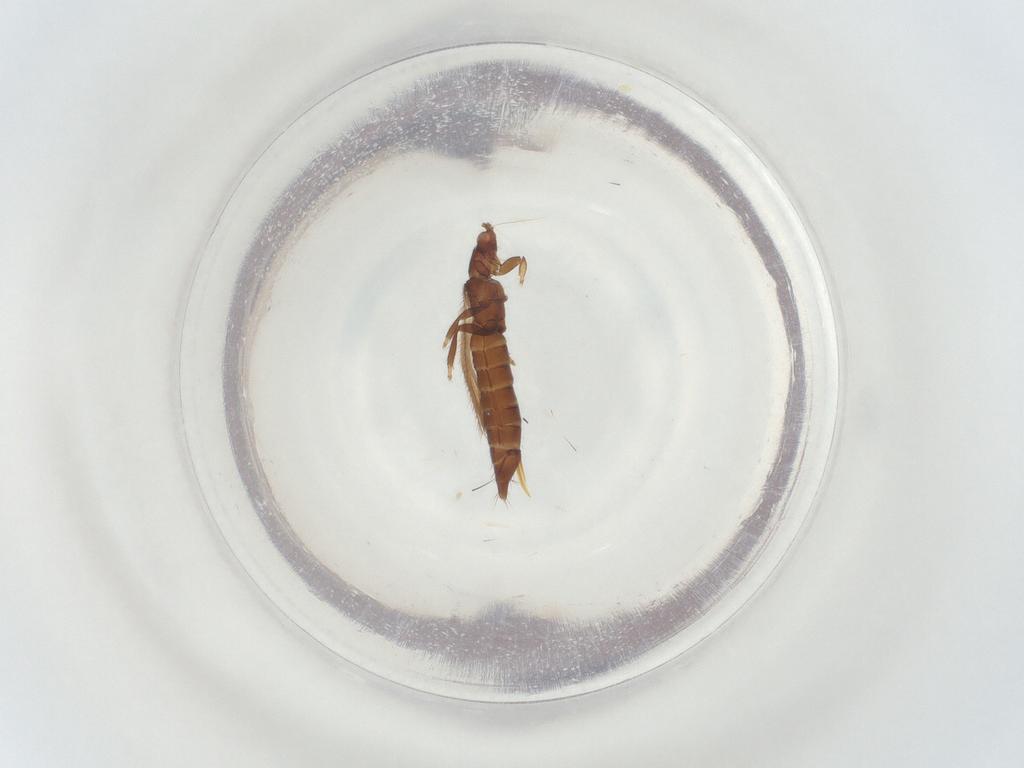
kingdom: Animalia
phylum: Arthropoda
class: Insecta
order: Thysanoptera
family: Thripidae
